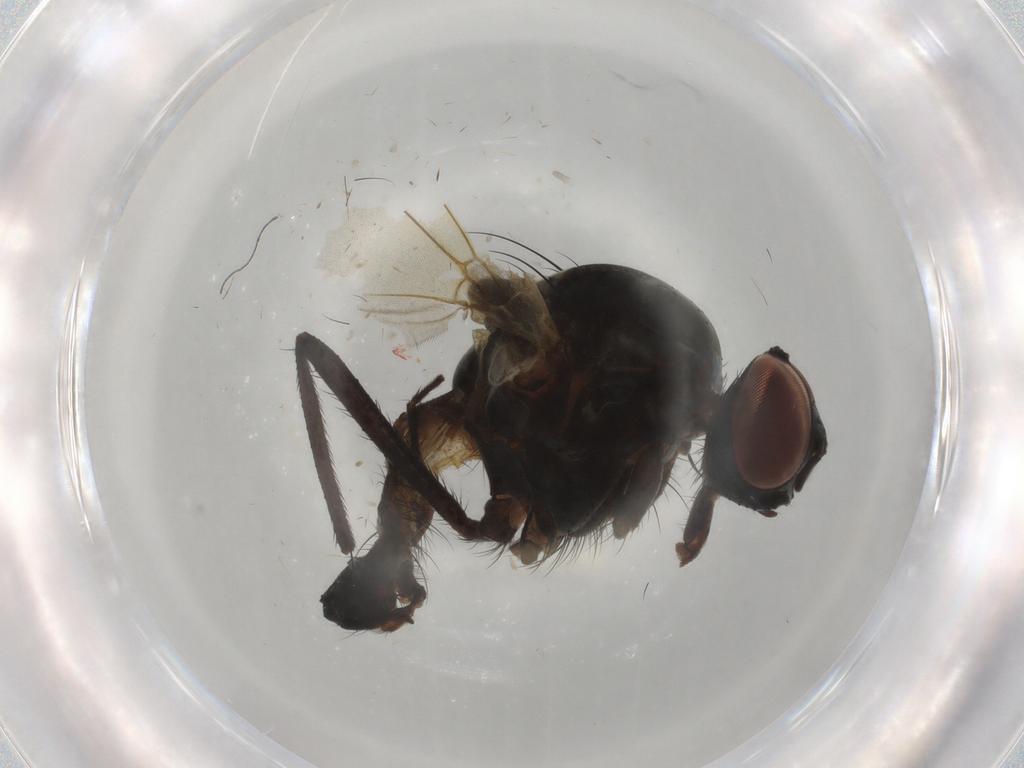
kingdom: Animalia
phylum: Arthropoda
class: Insecta
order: Diptera
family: Anthomyiidae
